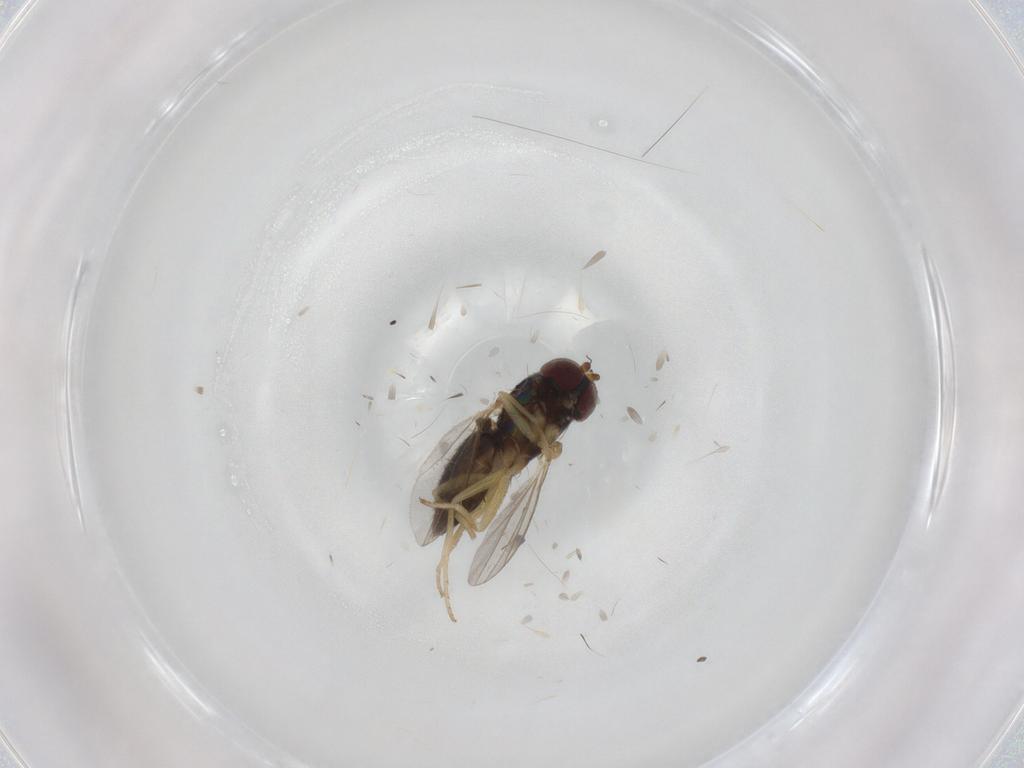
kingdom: Animalia
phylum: Arthropoda
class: Insecta
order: Diptera
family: Dolichopodidae
